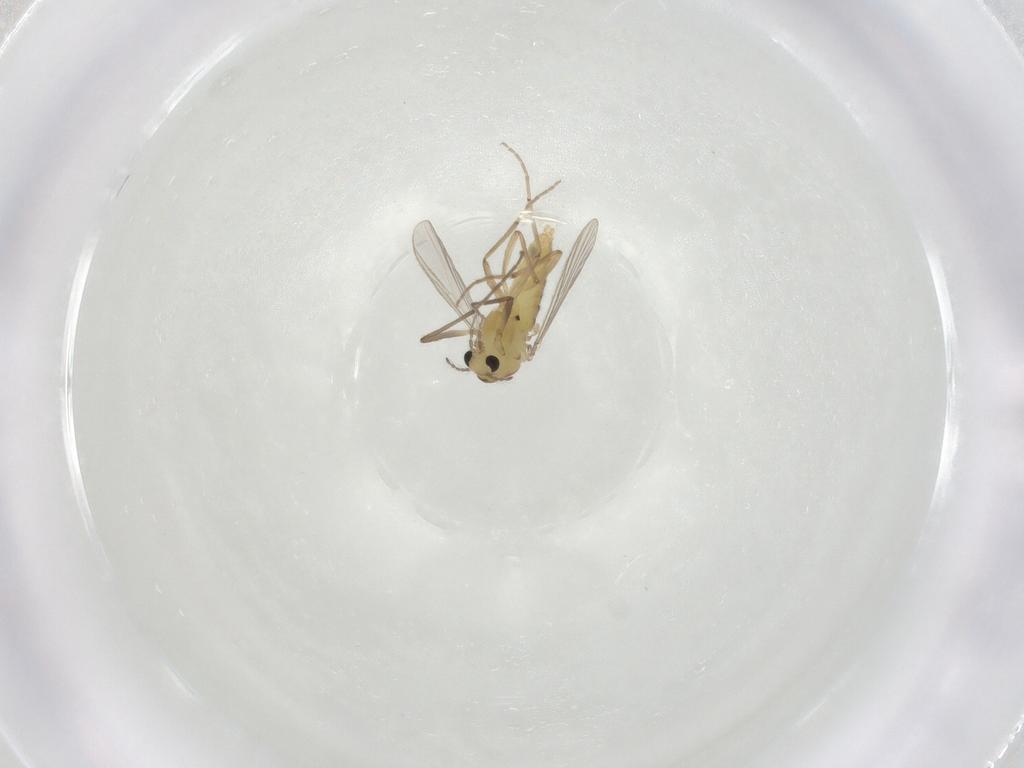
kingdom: Animalia
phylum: Arthropoda
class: Insecta
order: Diptera
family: Chironomidae
